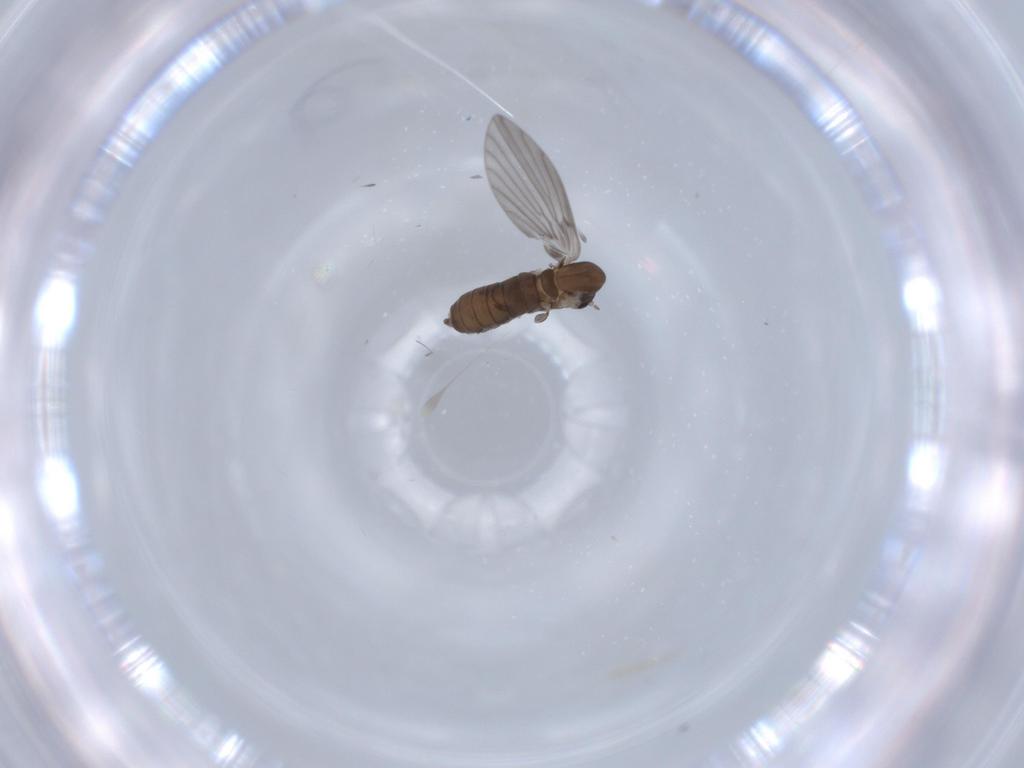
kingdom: Animalia
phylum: Arthropoda
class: Insecta
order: Diptera
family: Psychodidae
